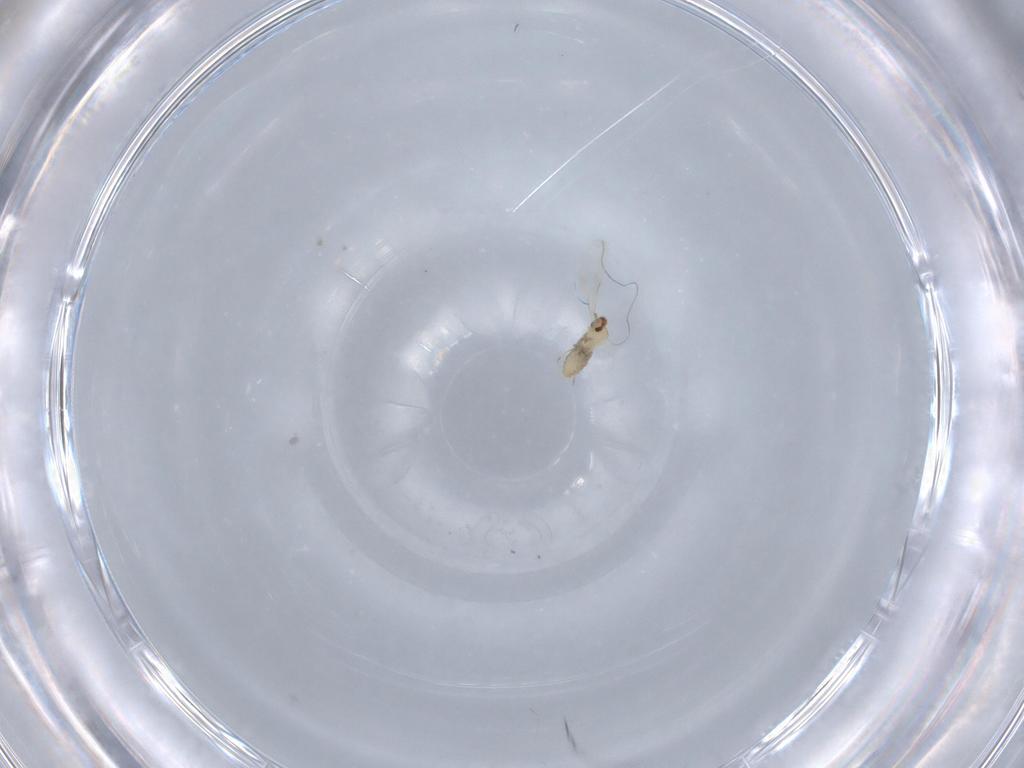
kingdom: Animalia
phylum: Arthropoda
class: Insecta
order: Diptera
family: Cecidomyiidae
